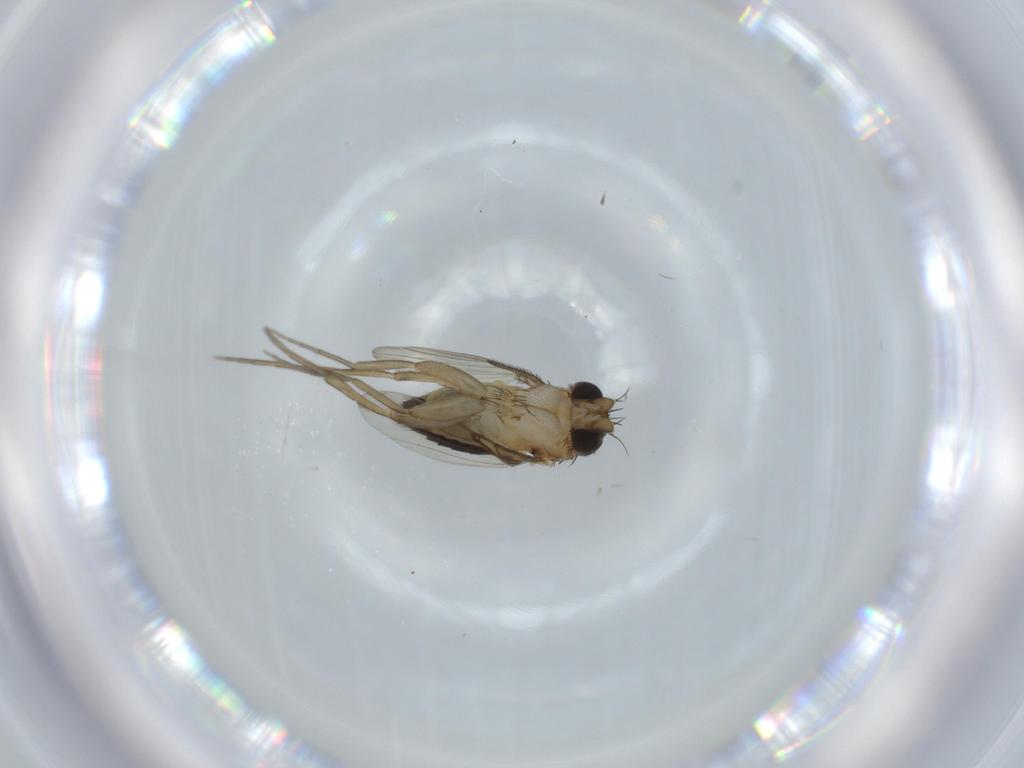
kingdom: Animalia
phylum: Arthropoda
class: Insecta
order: Diptera
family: Phoridae
